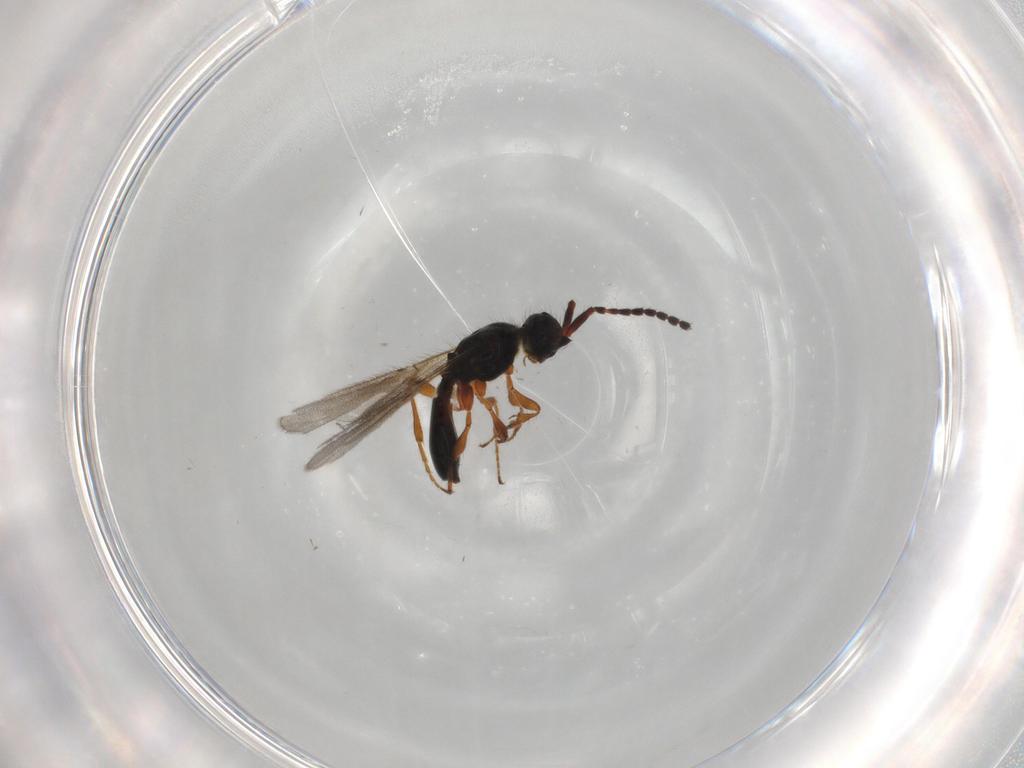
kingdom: Animalia
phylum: Arthropoda
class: Insecta
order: Hymenoptera
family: Diapriidae
